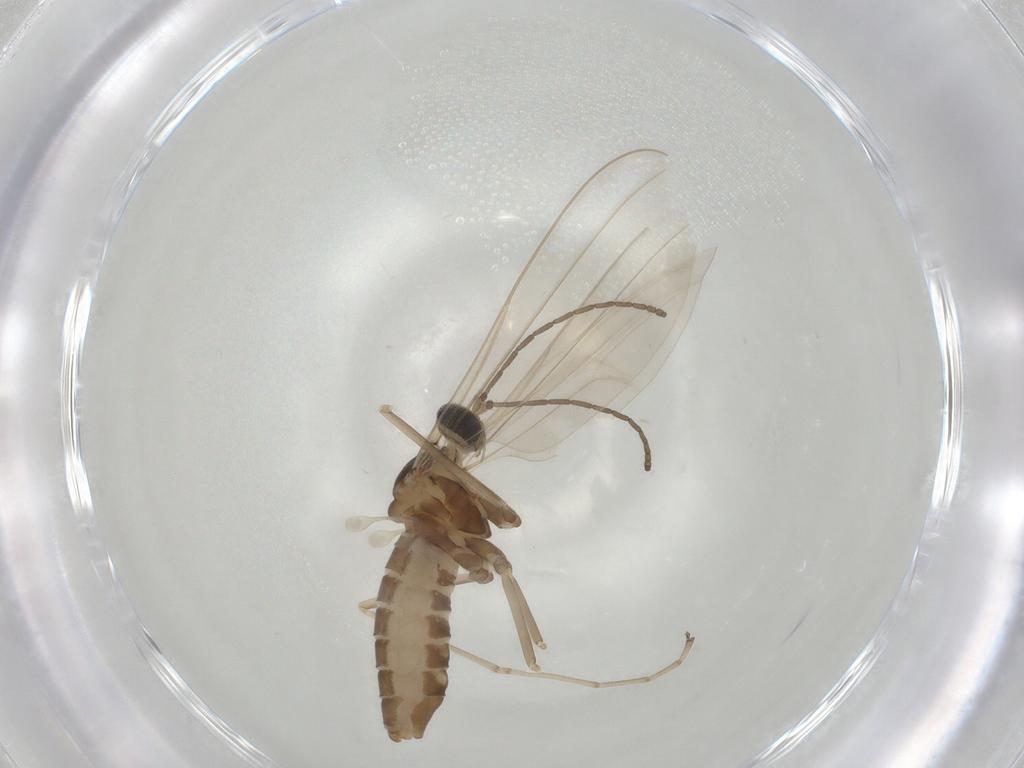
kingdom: Animalia
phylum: Arthropoda
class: Insecta
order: Diptera
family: Cecidomyiidae
